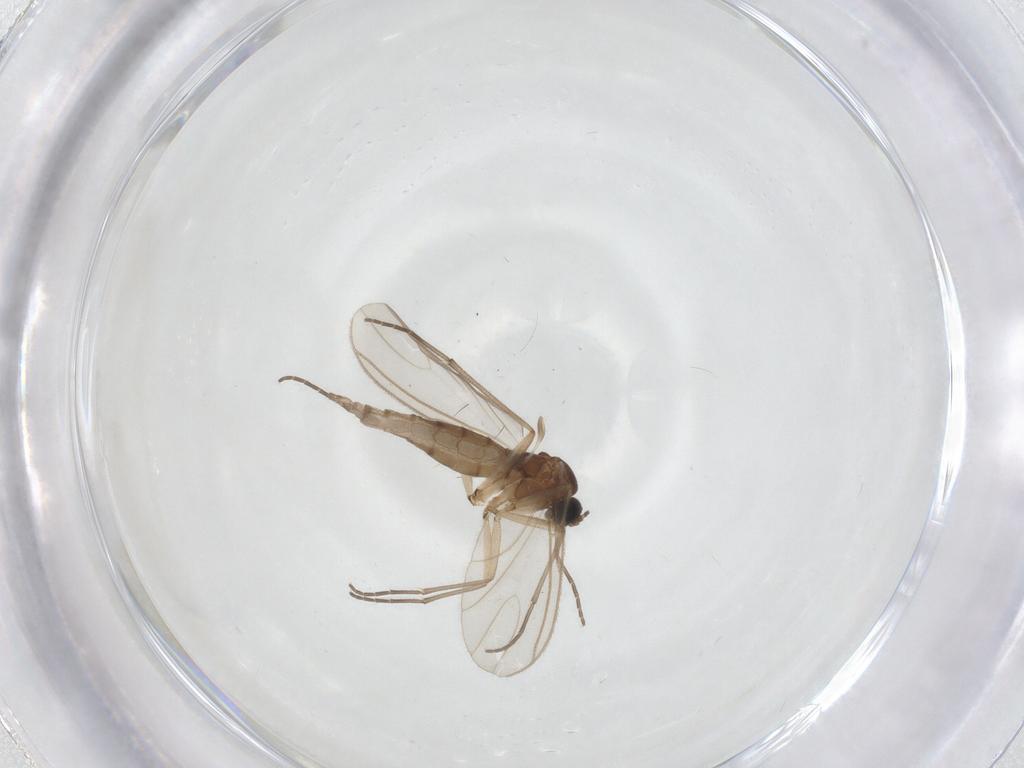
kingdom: Animalia
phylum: Arthropoda
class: Insecta
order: Diptera
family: Sciaridae
